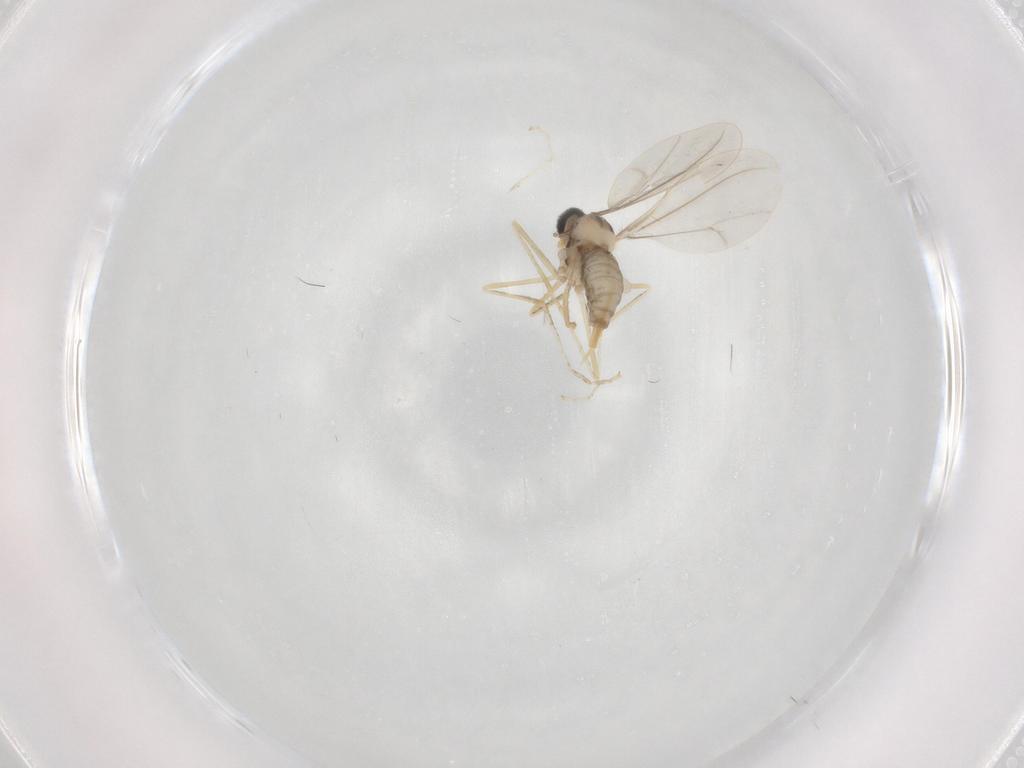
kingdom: Animalia
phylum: Arthropoda
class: Insecta
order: Diptera
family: Cecidomyiidae
